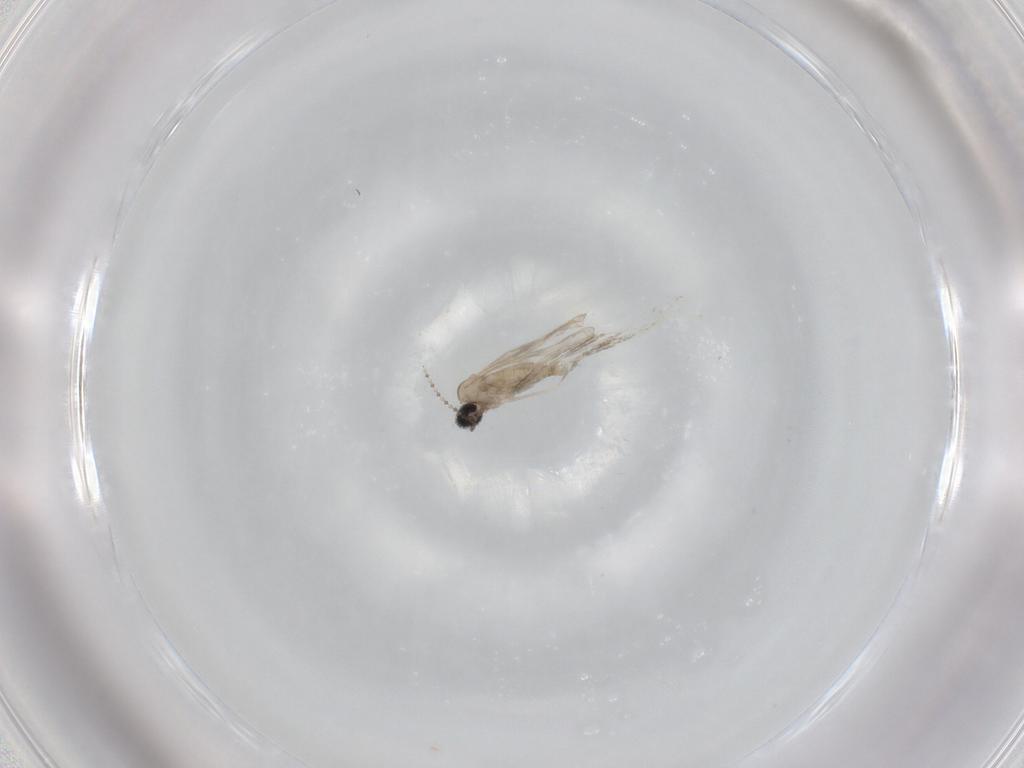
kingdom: Animalia
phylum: Arthropoda
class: Insecta
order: Diptera
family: Cecidomyiidae
